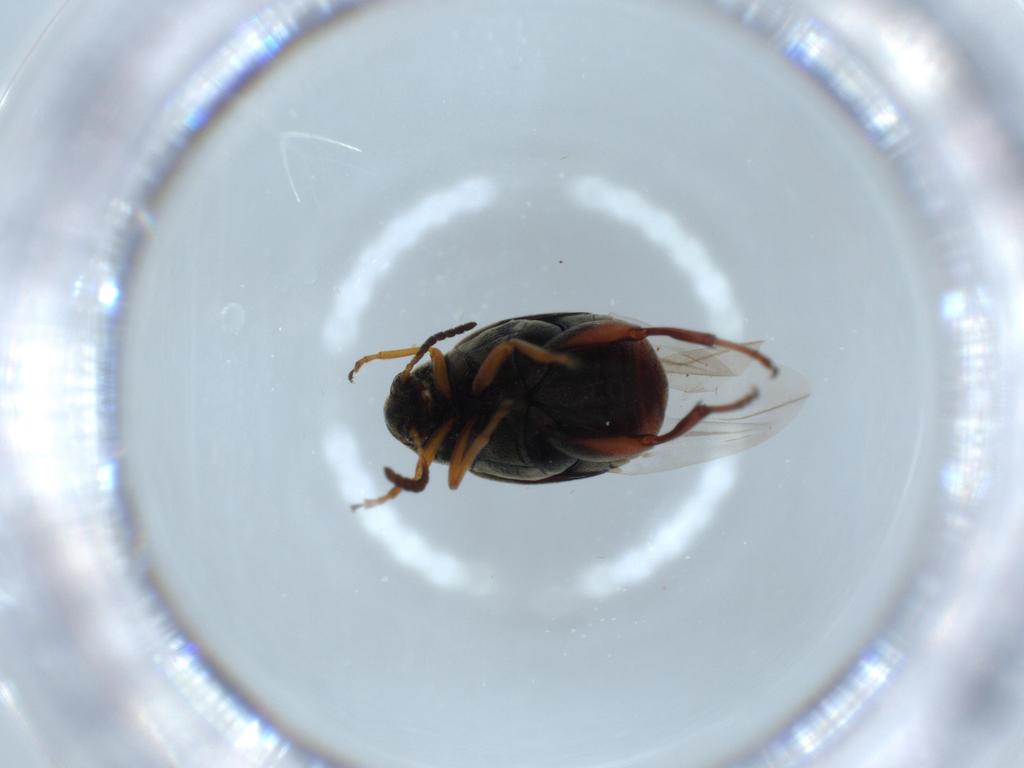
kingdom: Animalia
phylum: Arthropoda
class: Insecta
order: Coleoptera
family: Chrysomelidae
